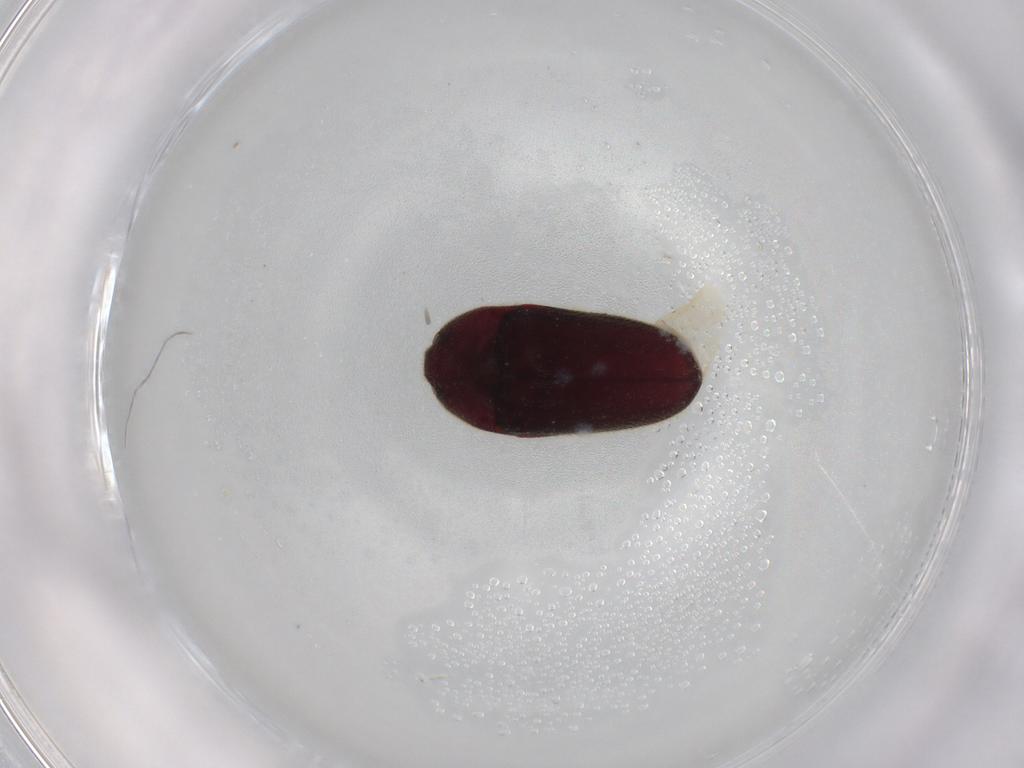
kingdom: Animalia
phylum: Arthropoda
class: Insecta
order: Coleoptera
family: Throscidae
